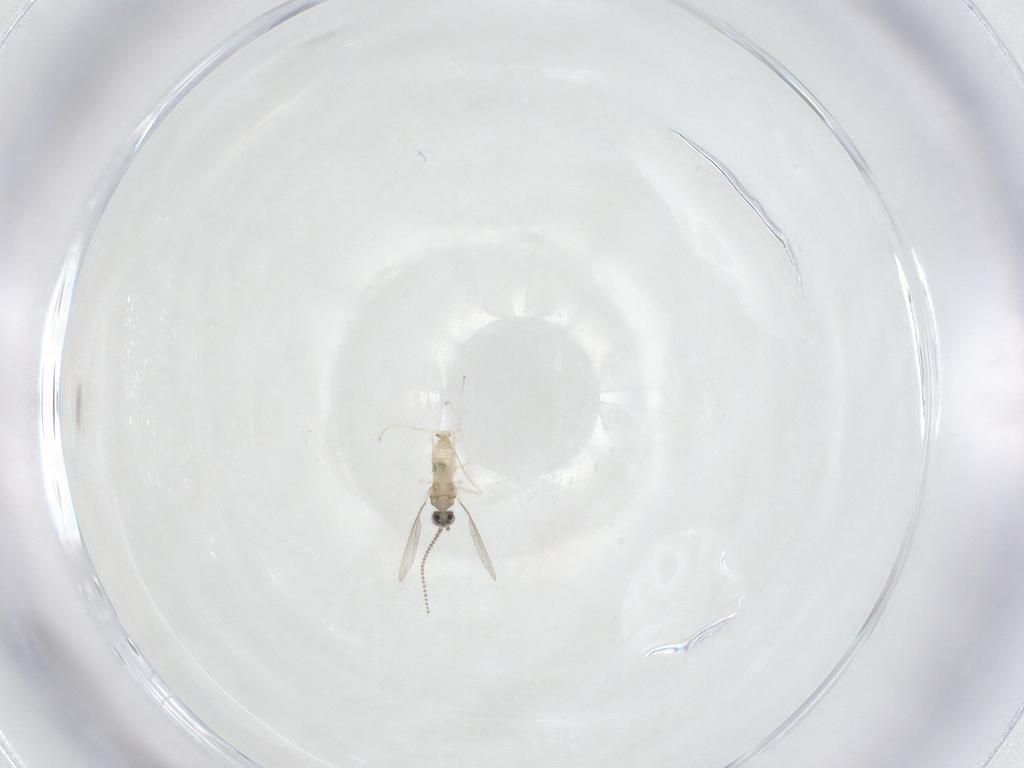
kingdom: Animalia
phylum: Arthropoda
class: Insecta
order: Diptera
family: Cecidomyiidae
